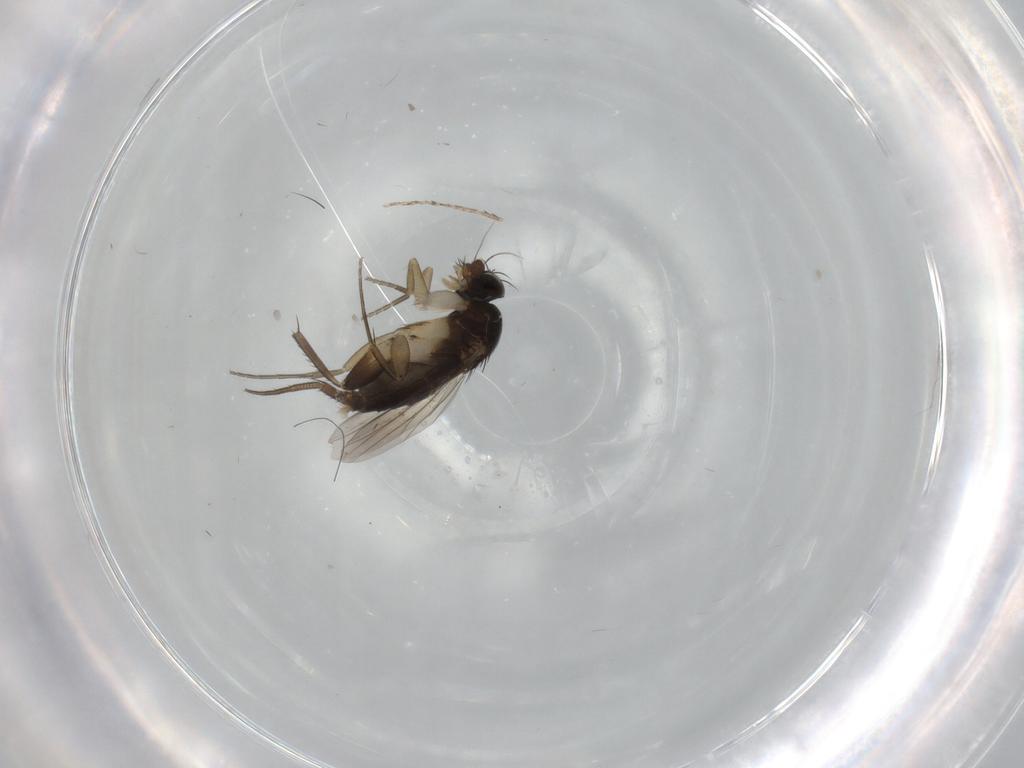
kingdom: Animalia
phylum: Arthropoda
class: Insecta
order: Diptera
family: Phoridae
